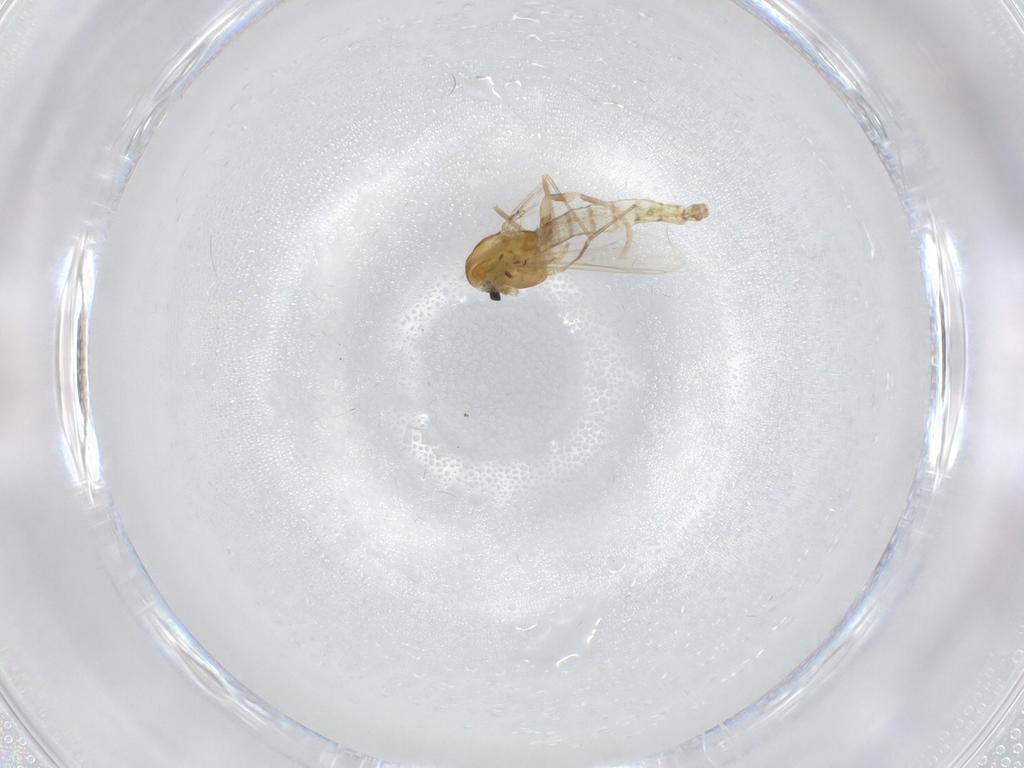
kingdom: Animalia
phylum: Arthropoda
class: Insecta
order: Diptera
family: Chironomidae
